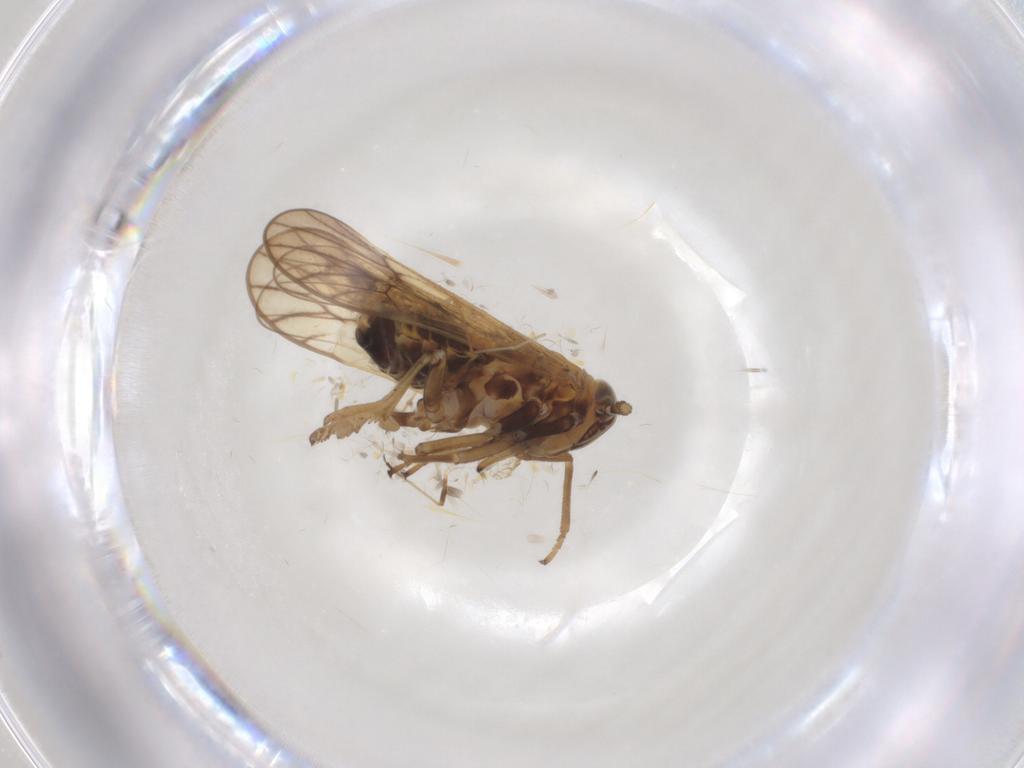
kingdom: Animalia
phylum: Arthropoda
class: Insecta
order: Hemiptera
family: Aphididae
